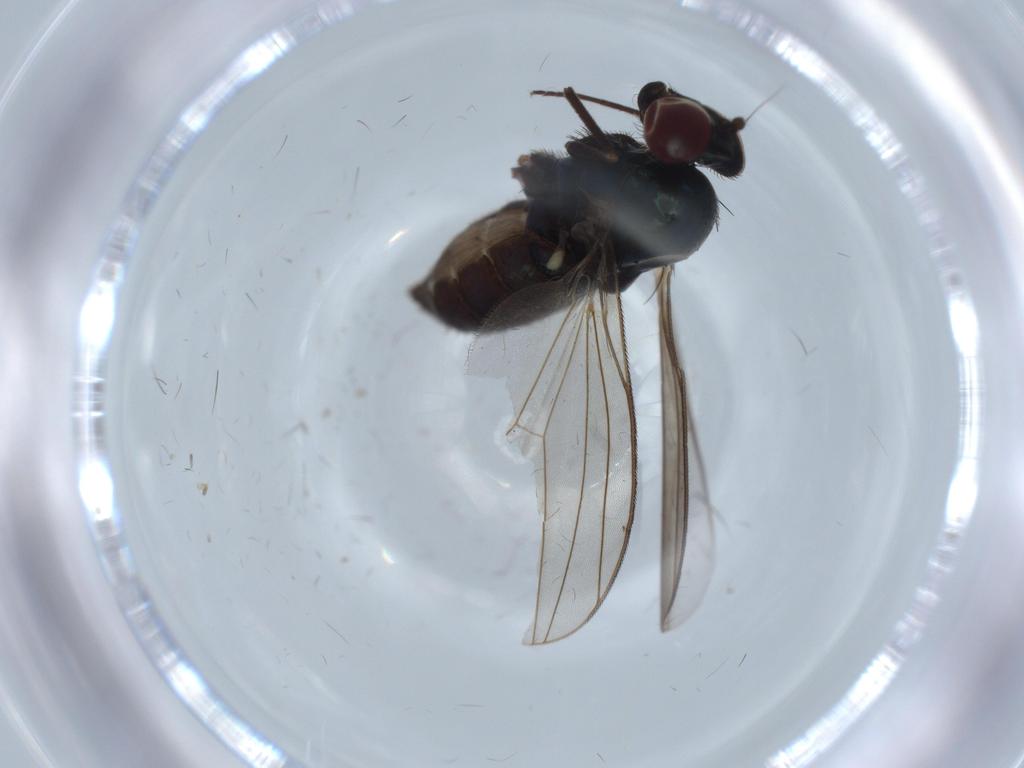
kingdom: Animalia
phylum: Arthropoda
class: Insecta
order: Diptera
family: Dolichopodidae
